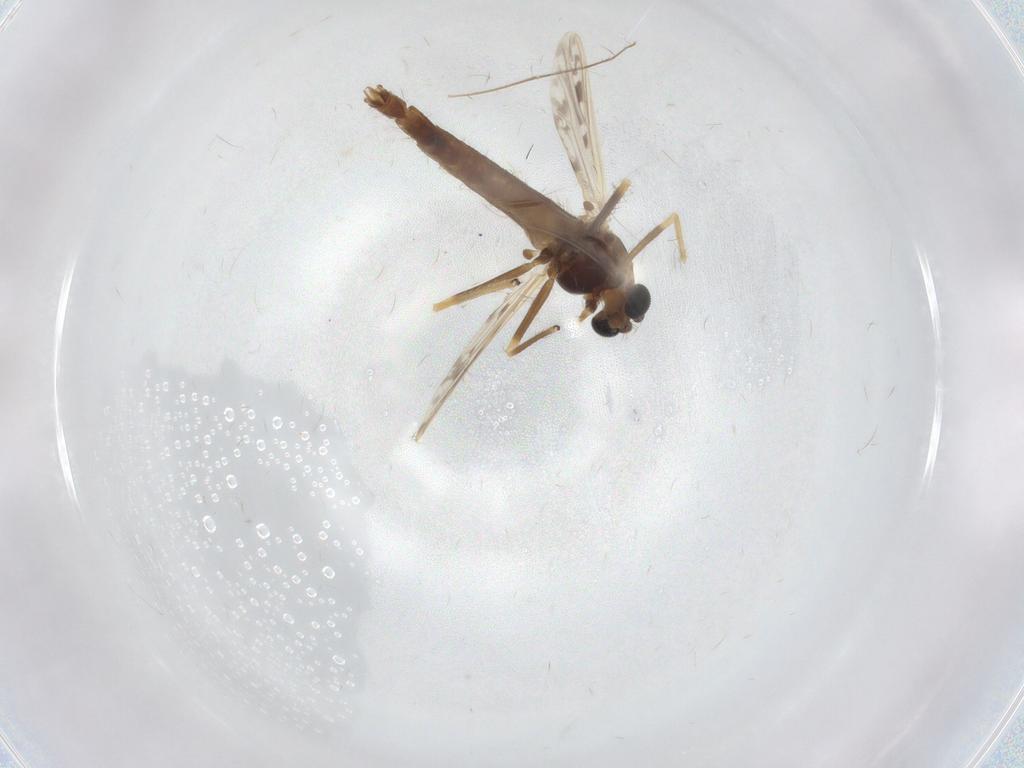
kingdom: Animalia
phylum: Arthropoda
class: Insecta
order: Diptera
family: Chironomidae
